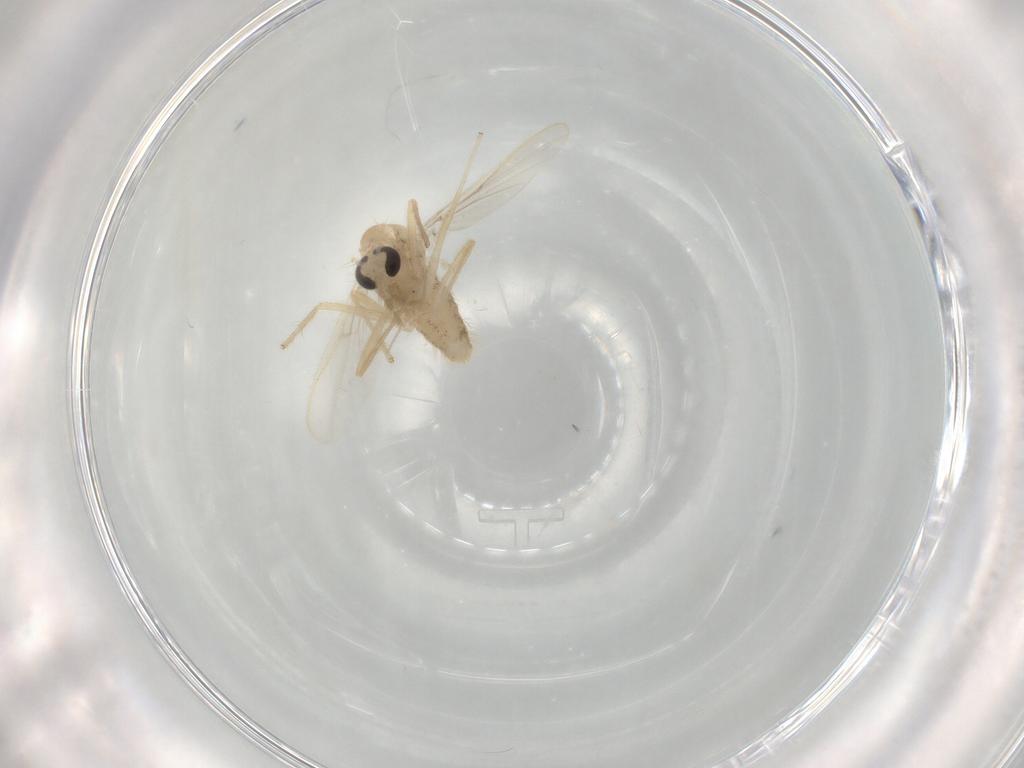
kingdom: Animalia
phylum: Arthropoda
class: Insecta
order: Diptera
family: Chironomidae
